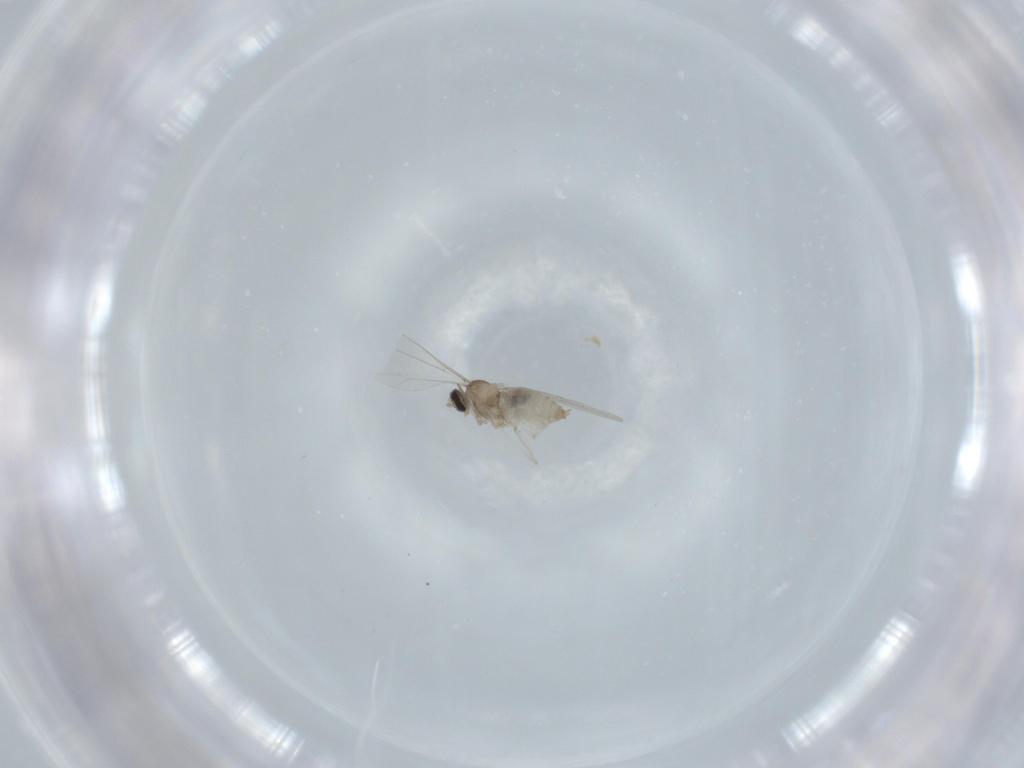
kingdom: Animalia
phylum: Arthropoda
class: Insecta
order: Diptera
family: Cecidomyiidae
